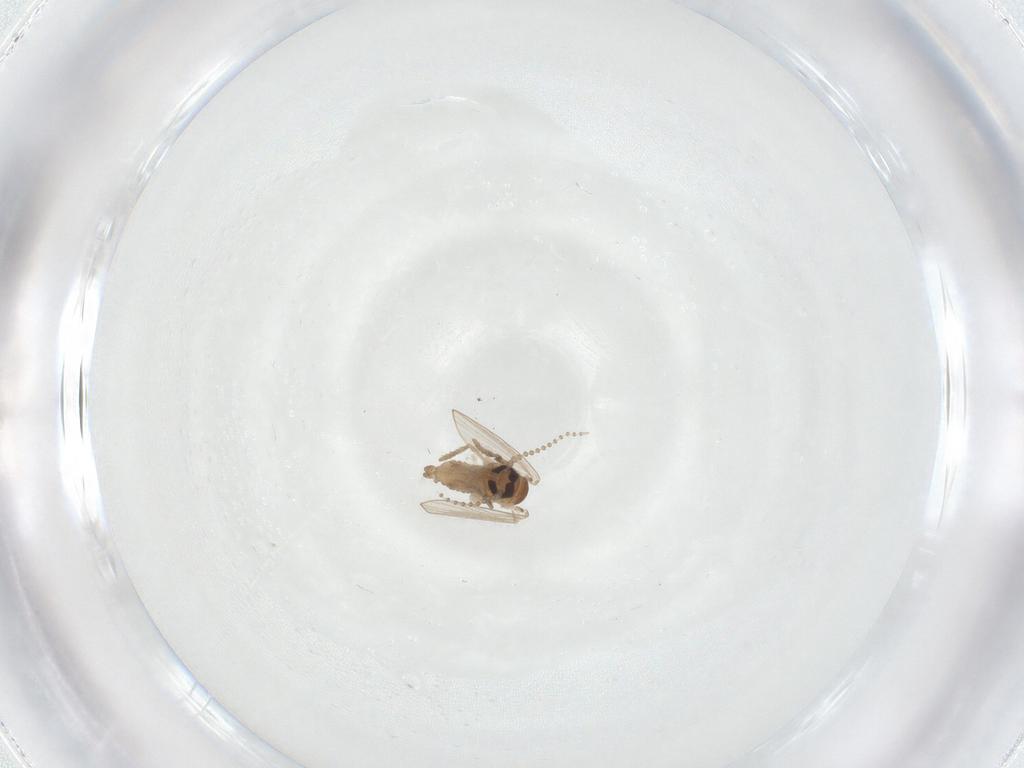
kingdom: Animalia
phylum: Arthropoda
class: Insecta
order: Diptera
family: Psychodidae
